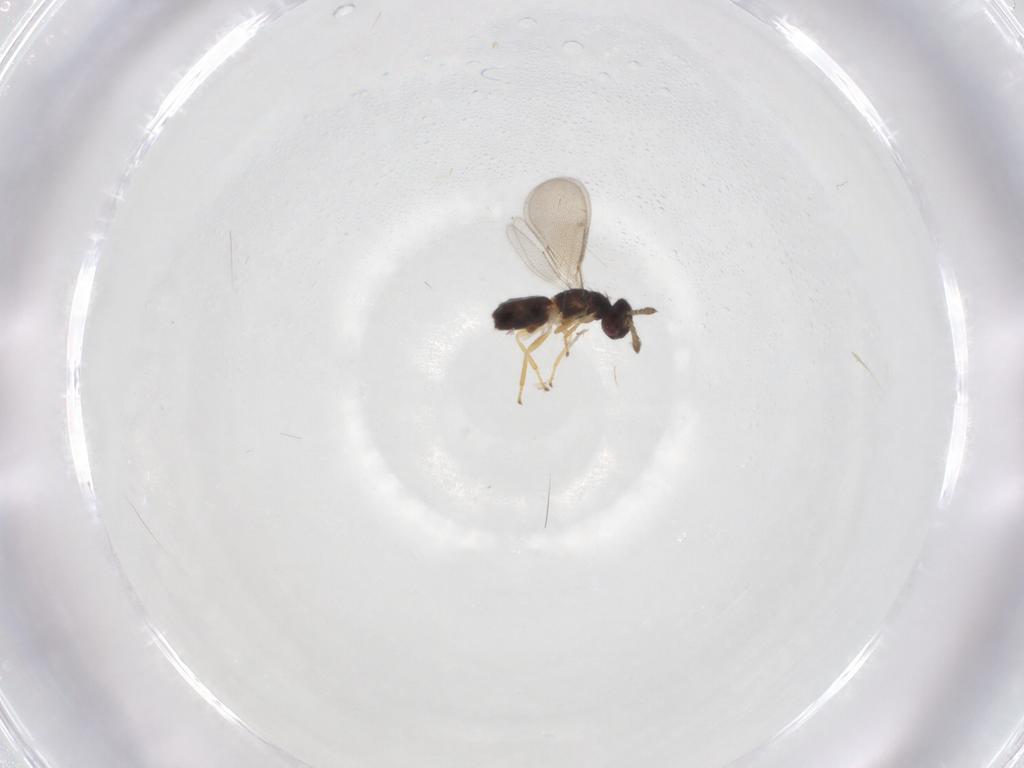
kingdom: Animalia
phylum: Arthropoda
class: Insecta
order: Hymenoptera
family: Eulophidae
